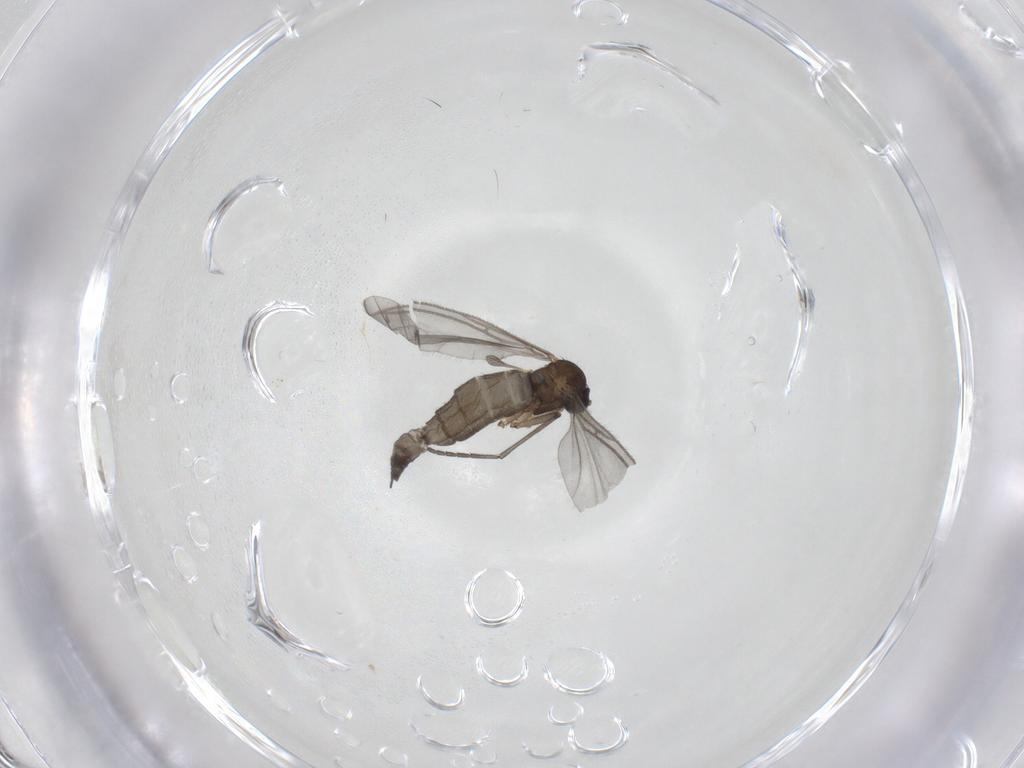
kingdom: Animalia
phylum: Arthropoda
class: Insecta
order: Diptera
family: Sciaridae
